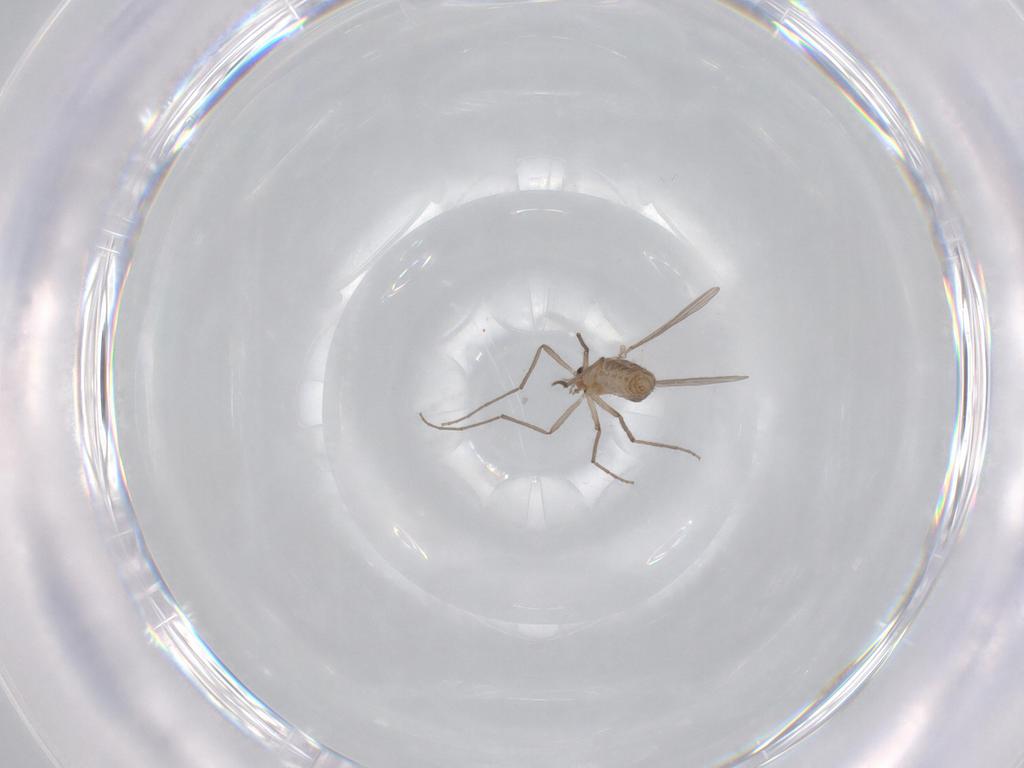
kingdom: Animalia
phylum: Arthropoda
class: Insecta
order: Diptera
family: Chironomidae
